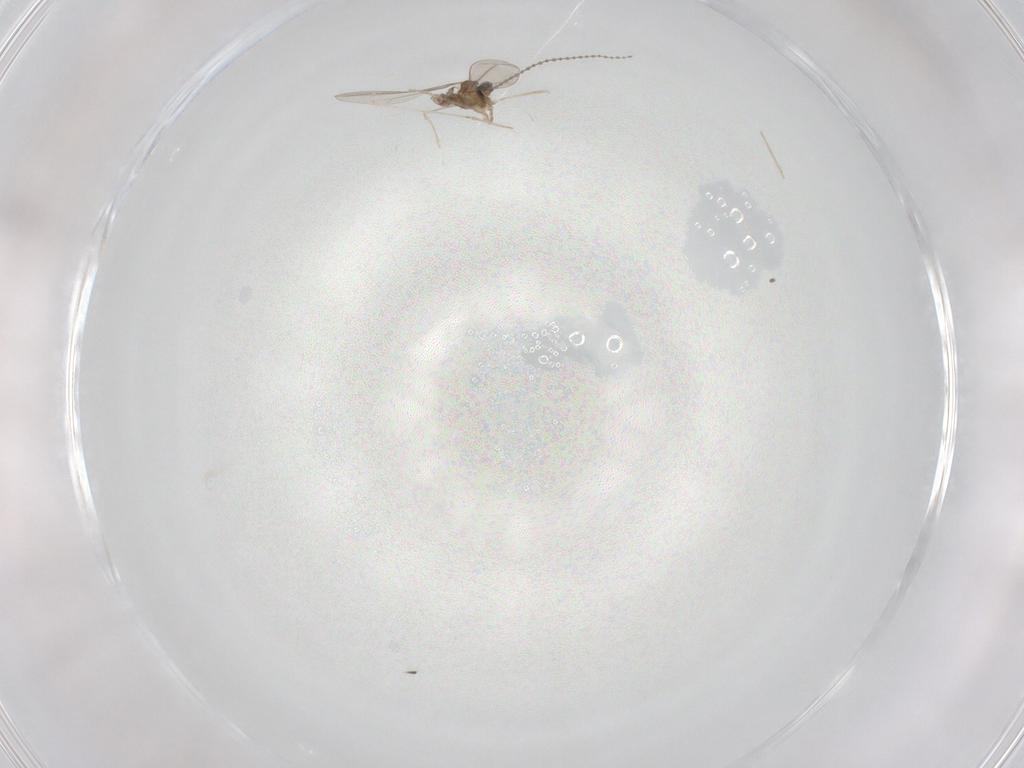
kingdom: Animalia
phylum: Arthropoda
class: Insecta
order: Diptera
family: Cecidomyiidae
